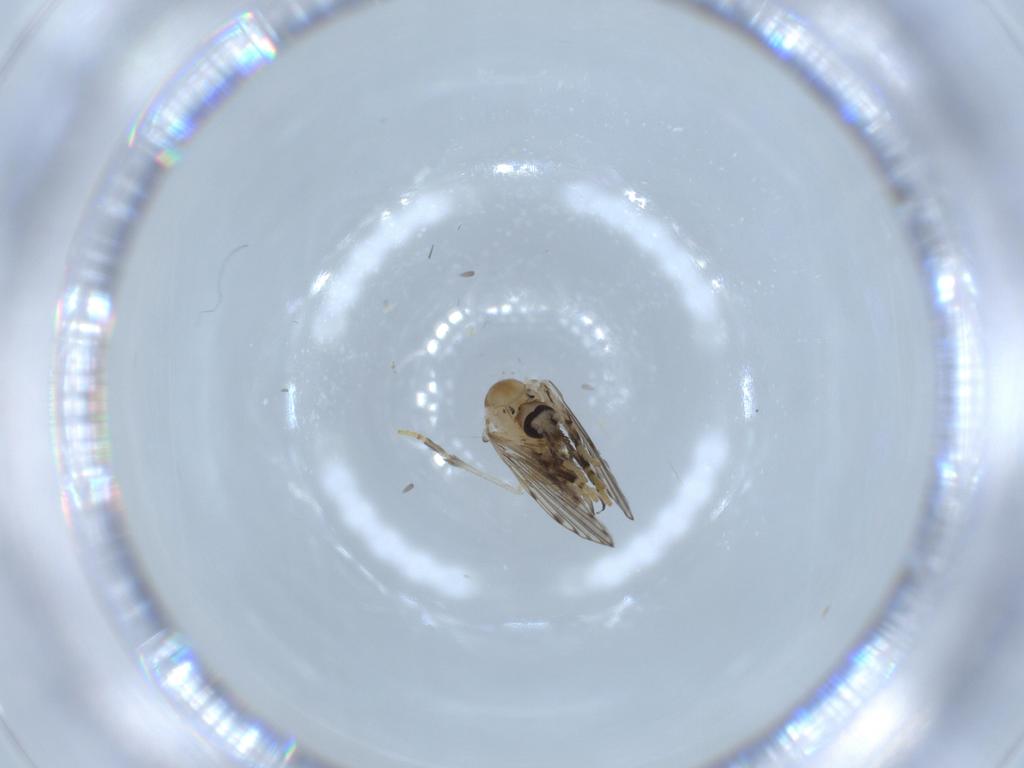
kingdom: Animalia
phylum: Arthropoda
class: Insecta
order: Diptera
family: Psychodidae
